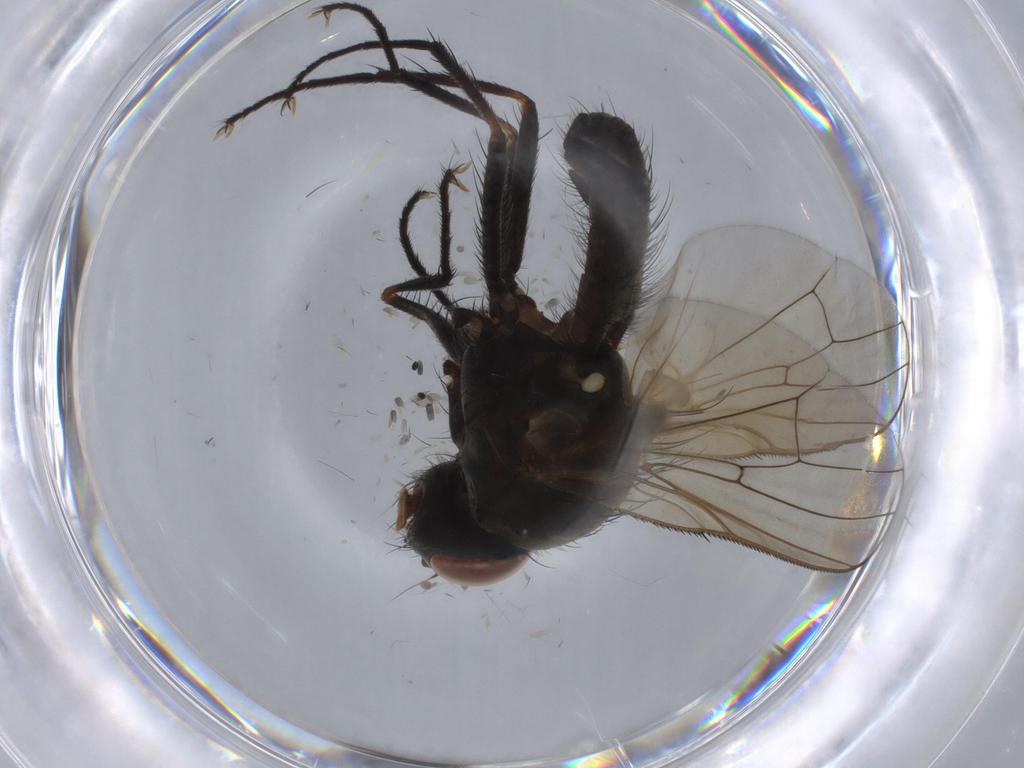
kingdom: Animalia
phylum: Arthropoda
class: Insecta
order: Diptera
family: Anthomyiidae
